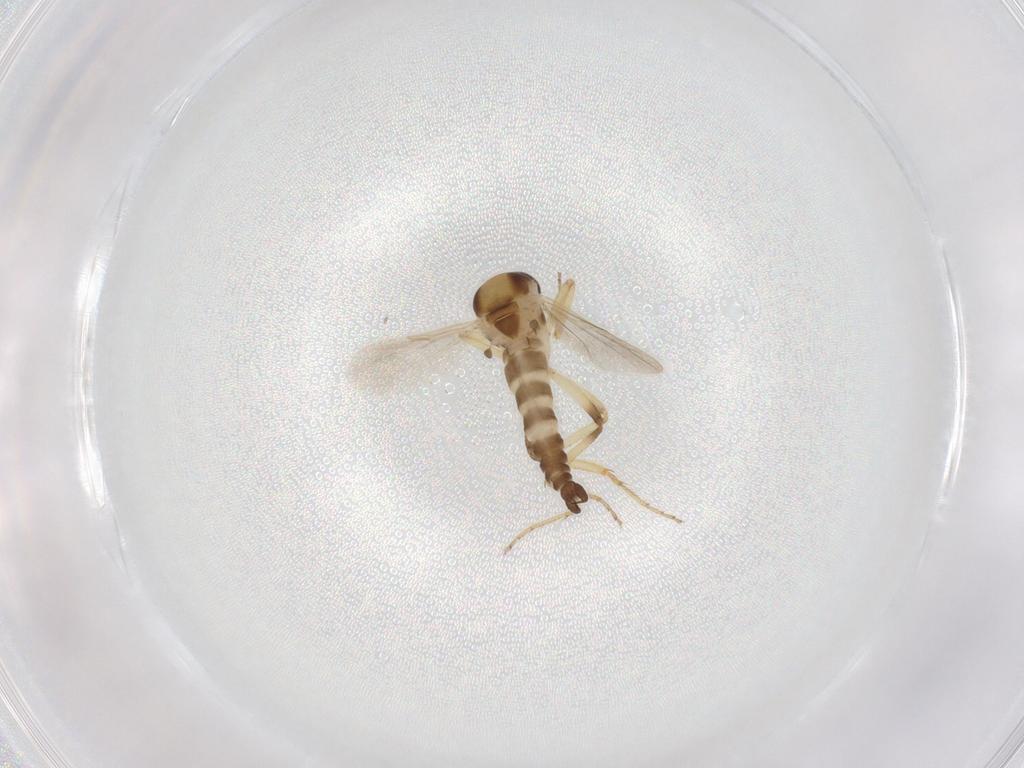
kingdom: Animalia
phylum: Arthropoda
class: Insecta
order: Diptera
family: Ceratopogonidae
